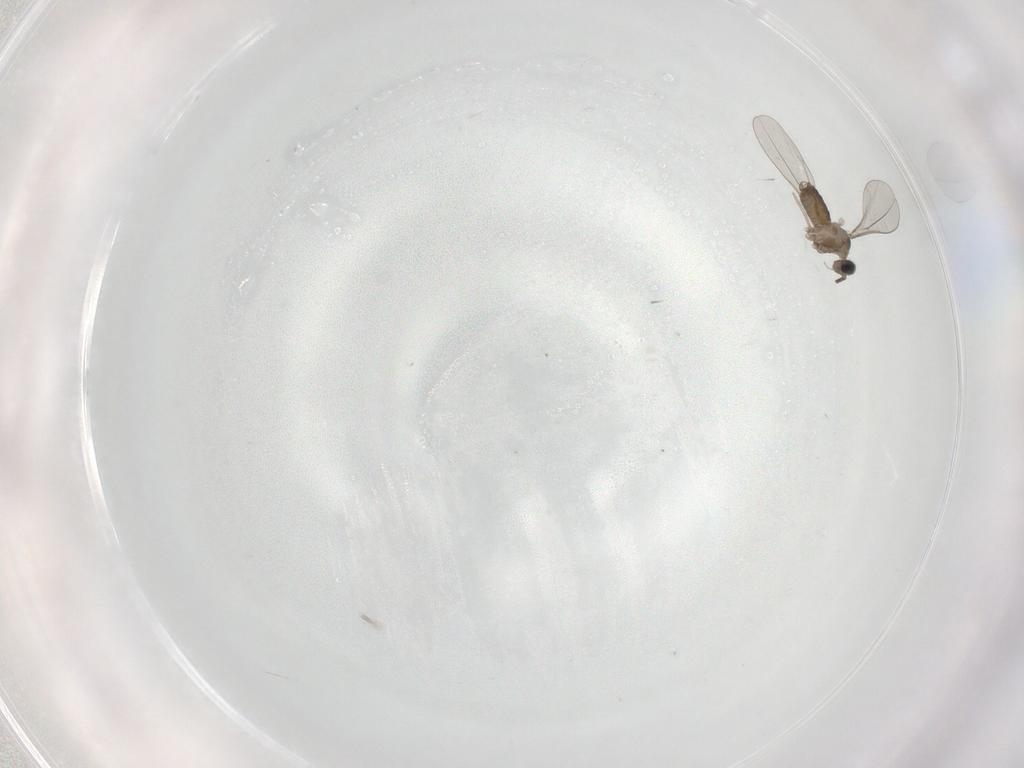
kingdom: Animalia
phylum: Arthropoda
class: Insecta
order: Diptera
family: Cecidomyiidae
